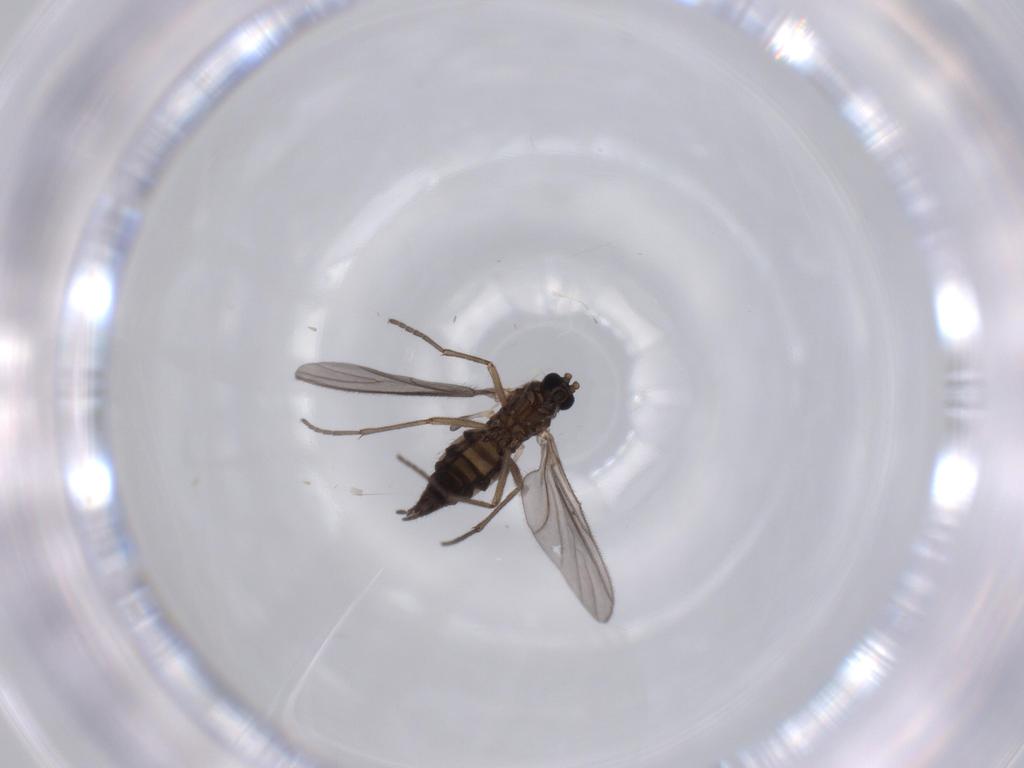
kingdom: Animalia
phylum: Arthropoda
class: Insecta
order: Diptera
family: Sciaridae
